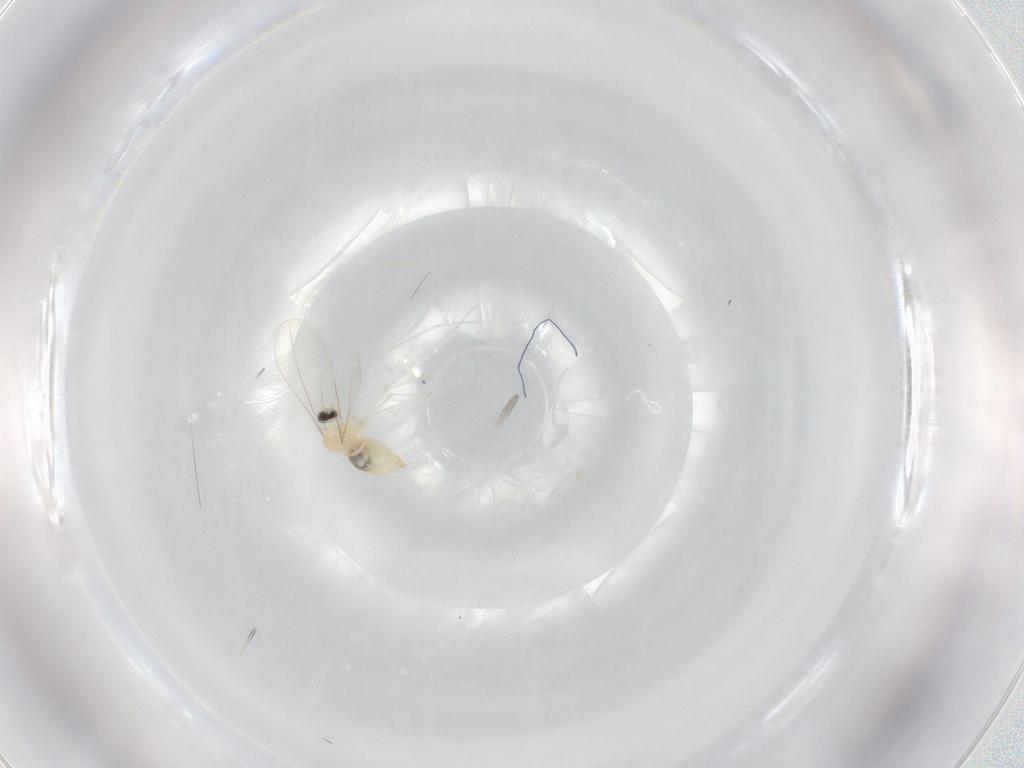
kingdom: Animalia
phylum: Arthropoda
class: Insecta
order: Diptera
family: Cecidomyiidae
